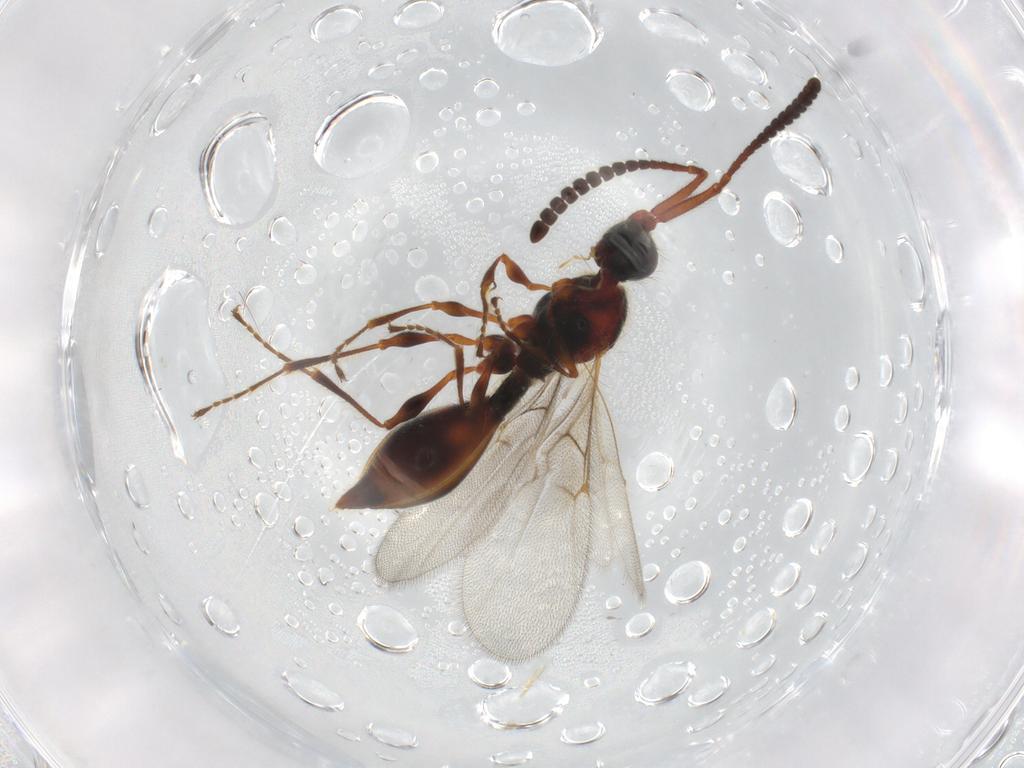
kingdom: Animalia
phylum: Arthropoda
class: Insecta
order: Hymenoptera
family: Diapriidae
